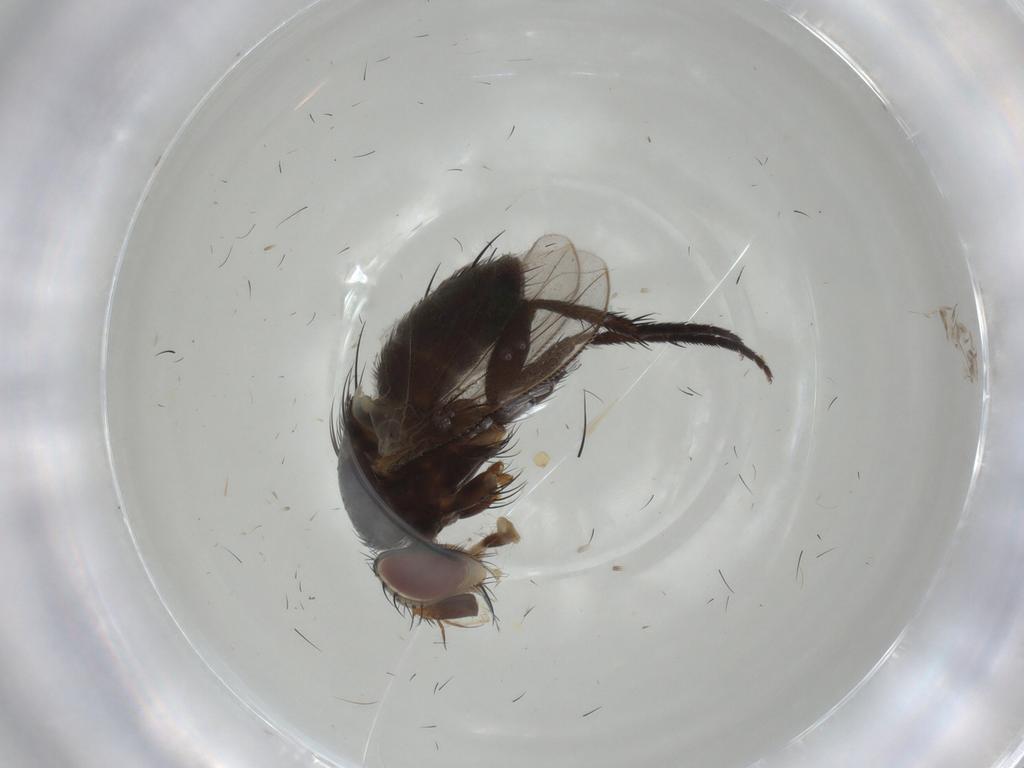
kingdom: Animalia
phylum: Arthropoda
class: Insecta
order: Diptera
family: Tachinidae
